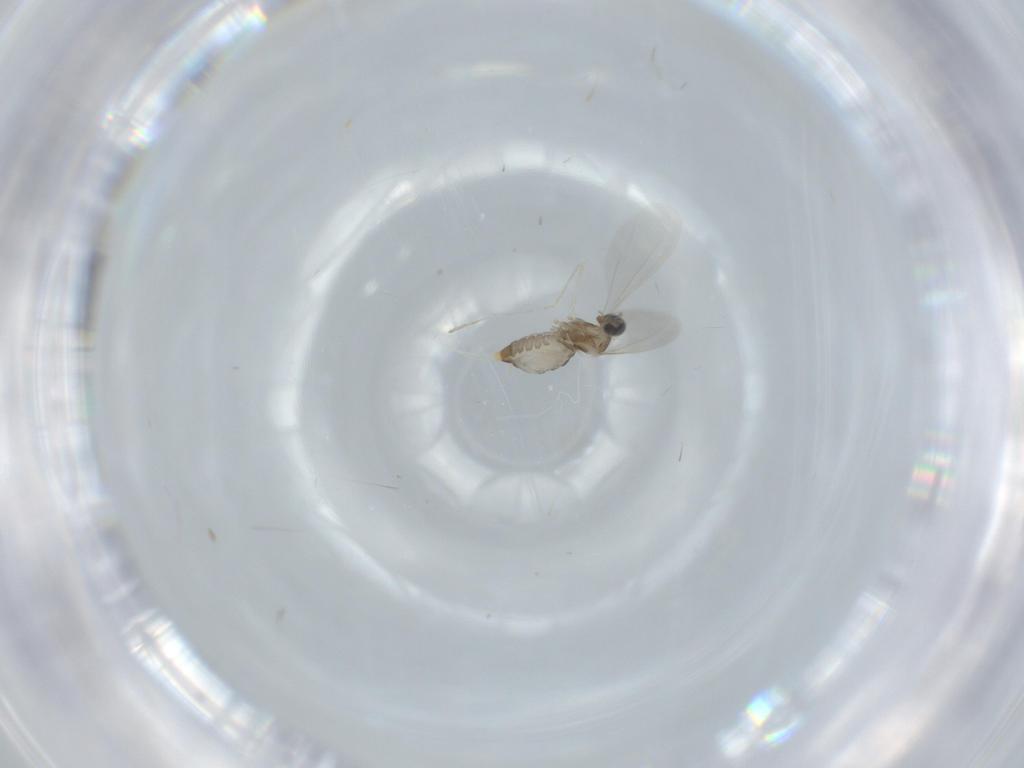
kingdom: Animalia
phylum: Arthropoda
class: Insecta
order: Diptera
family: Cecidomyiidae
